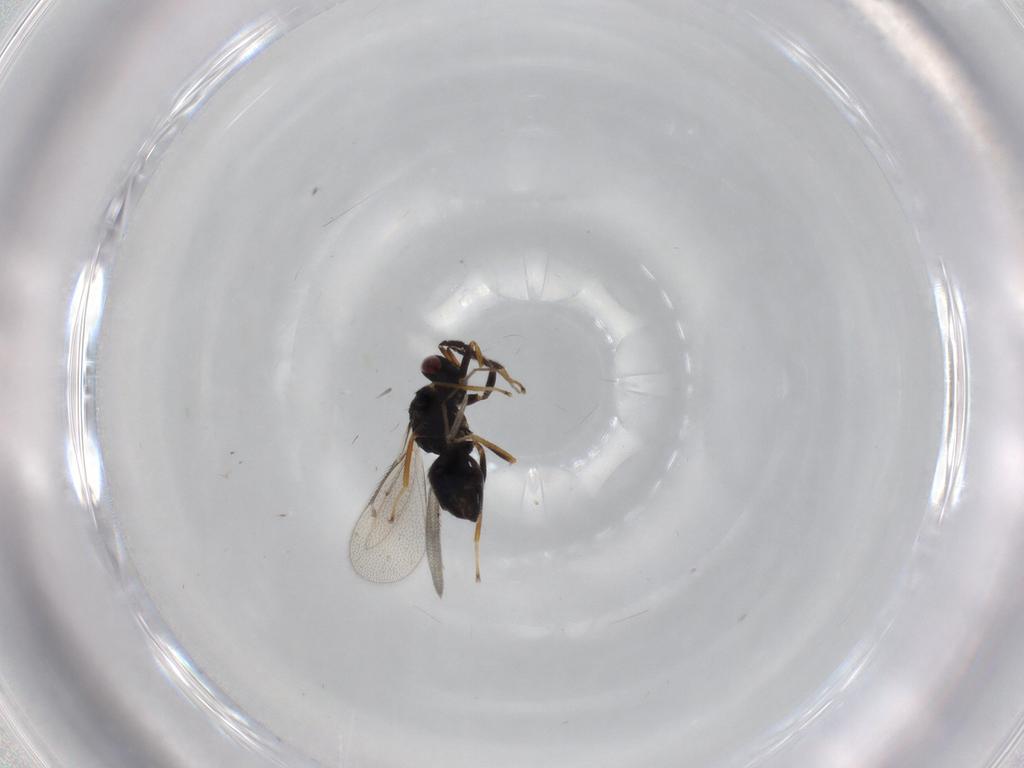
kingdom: Animalia
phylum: Arthropoda
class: Insecta
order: Hymenoptera
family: Eulophidae
